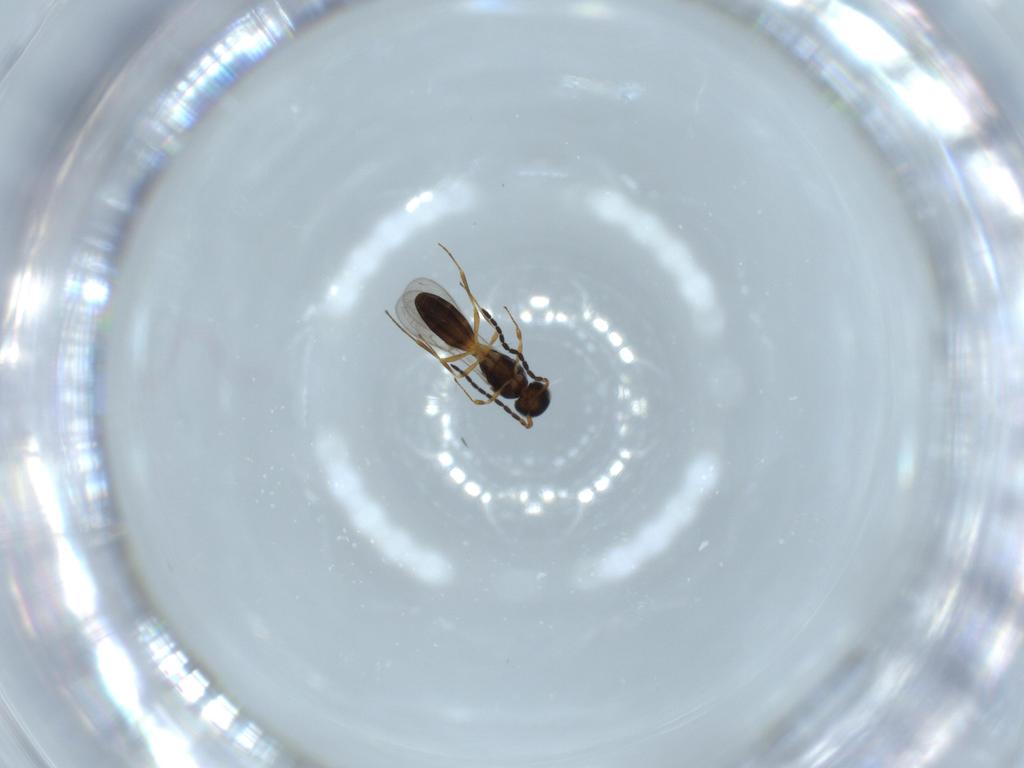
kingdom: Animalia
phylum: Arthropoda
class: Insecta
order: Hymenoptera
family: Scelionidae
